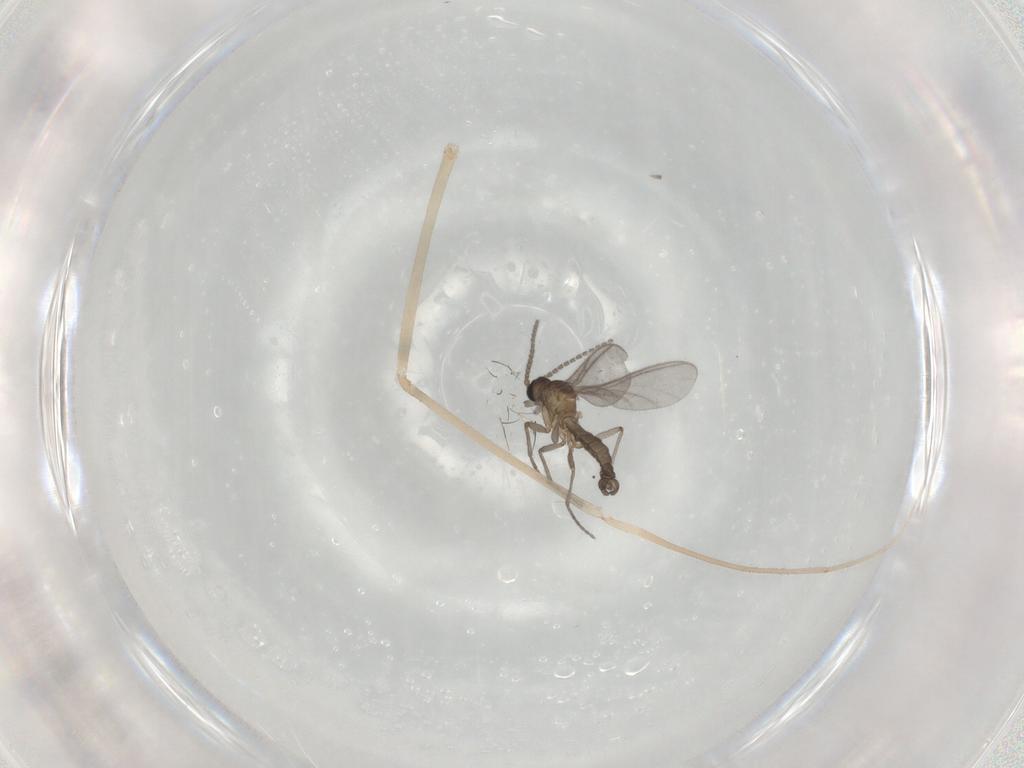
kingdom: Animalia
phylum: Arthropoda
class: Insecta
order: Diptera
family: Sciaridae
